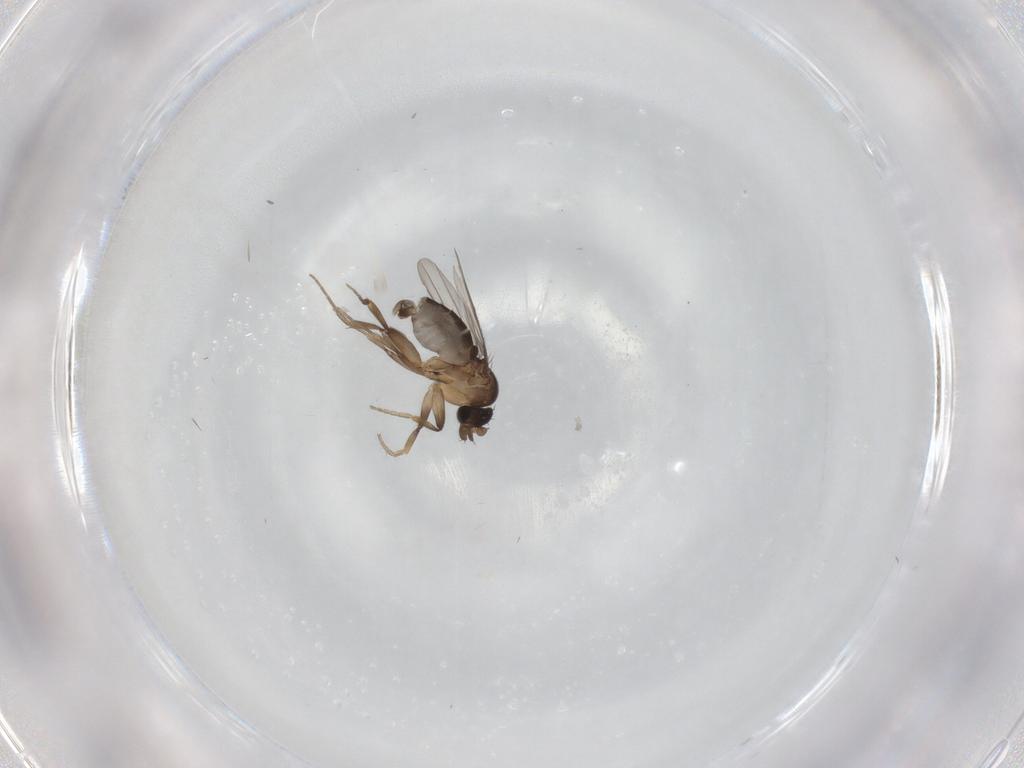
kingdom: Animalia
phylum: Arthropoda
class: Insecta
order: Diptera
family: Phoridae
